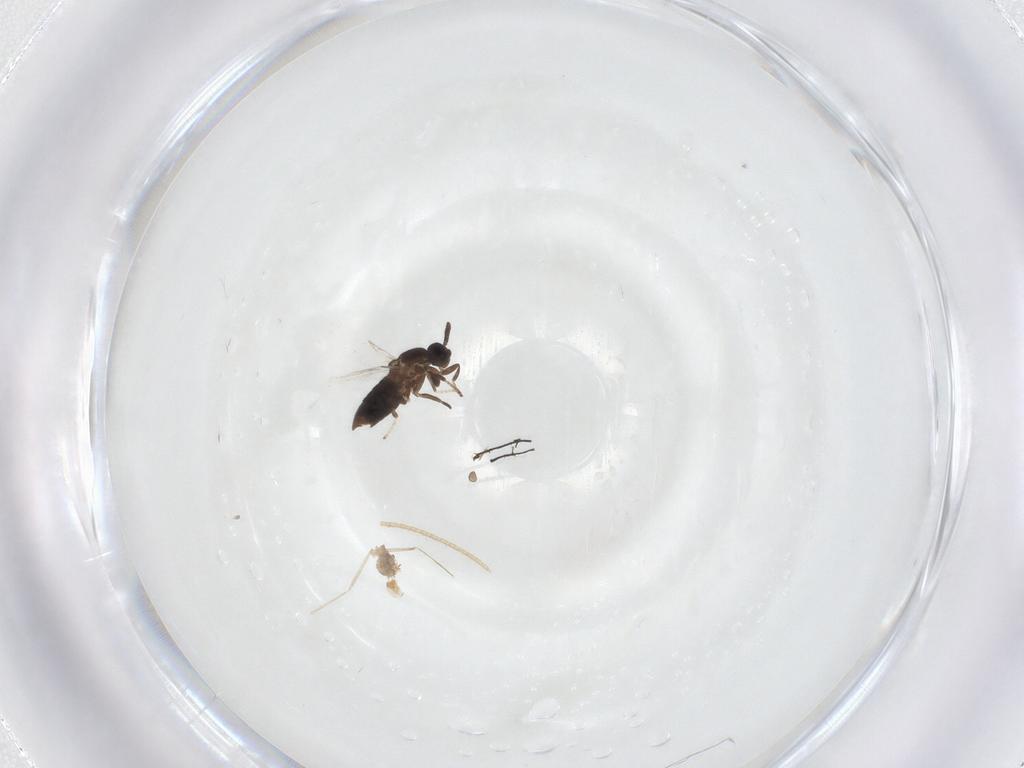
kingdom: Animalia
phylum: Arthropoda
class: Insecta
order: Diptera
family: Scatopsidae
